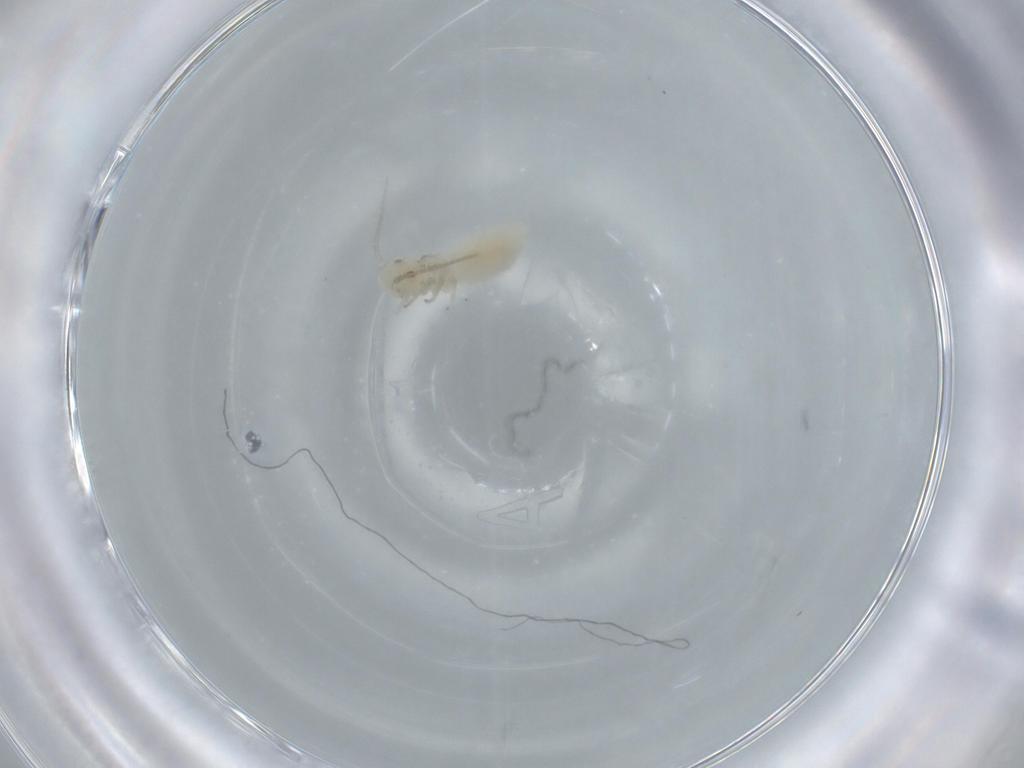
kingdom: Animalia
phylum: Arthropoda
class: Insecta
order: Psocodea
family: Caeciliusidae
